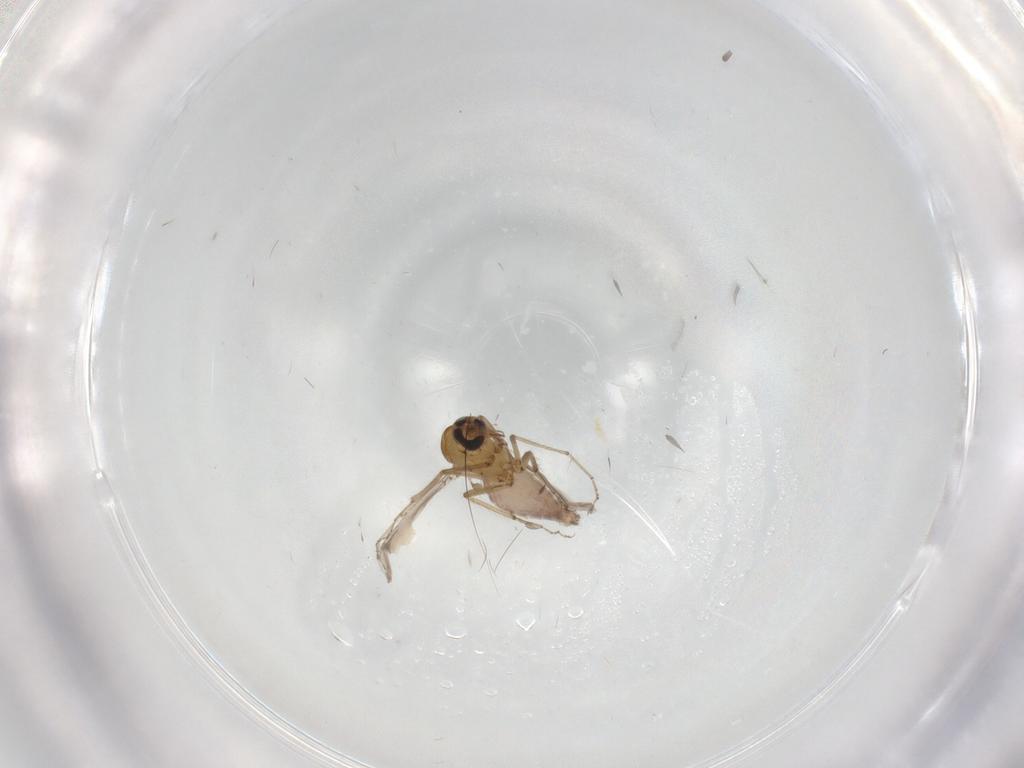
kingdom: Animalia
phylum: Arthropoda
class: Insecta
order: Diptera
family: Cecidomyiidae
